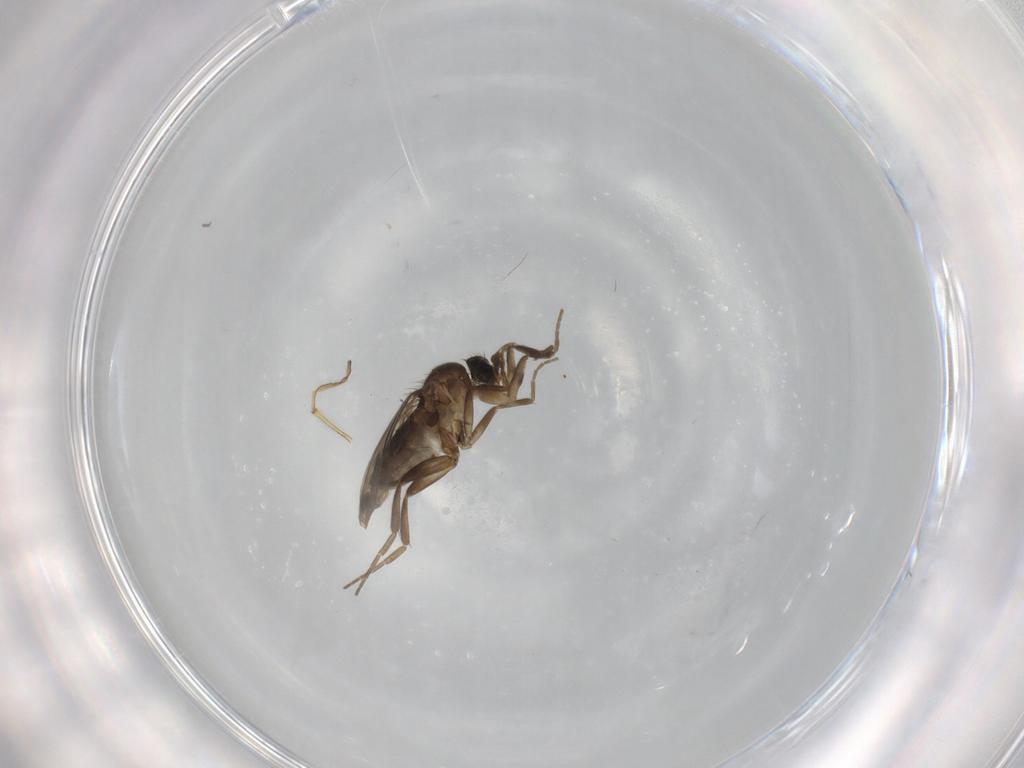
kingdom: Animalia
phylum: Arthropoda
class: Insecta
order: Diptera
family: Phoridae
